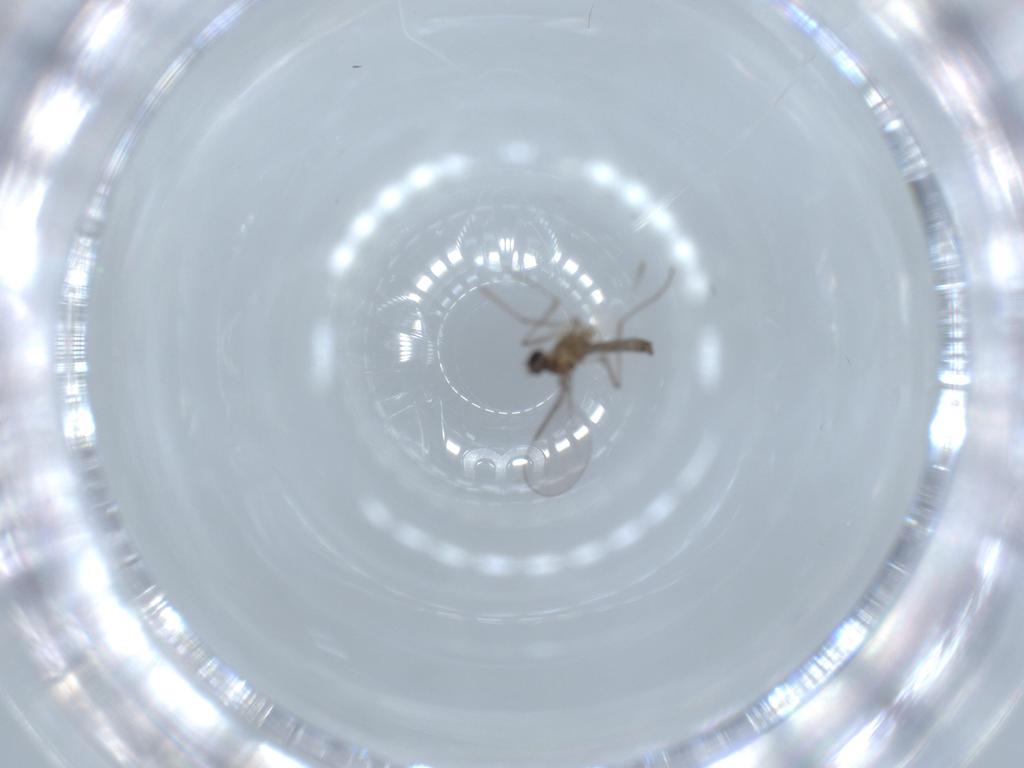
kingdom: Animalia
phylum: Arthropoda
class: Insecta
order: Diptera
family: Cecidomyiidae
